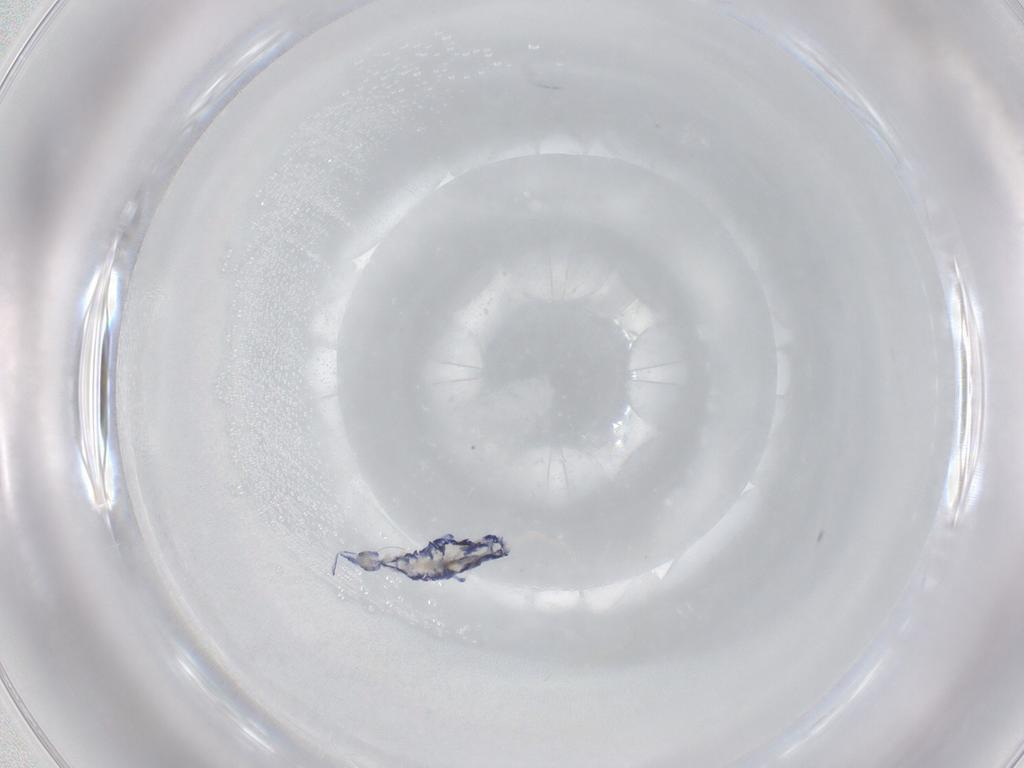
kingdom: Animalia
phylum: Arthropoda
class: Collembola
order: Entomobryomorpha
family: Entomobryidae
